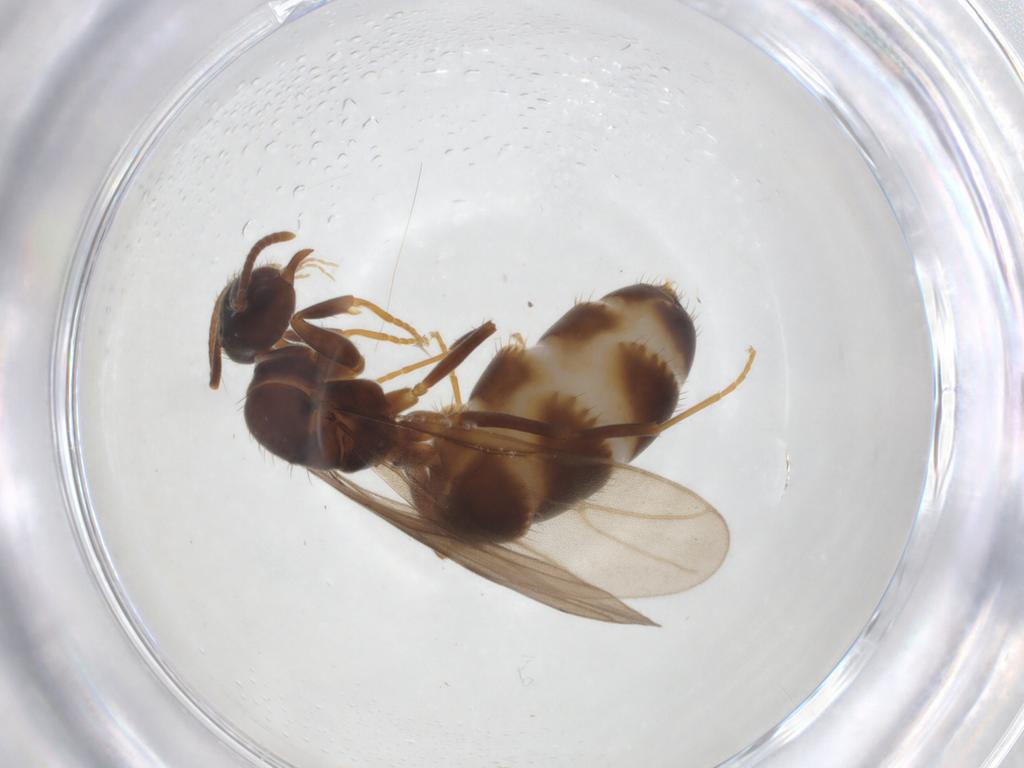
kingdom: Animalia
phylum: Arthropoda
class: Insecta
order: Hymenoptera
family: Formicidae
